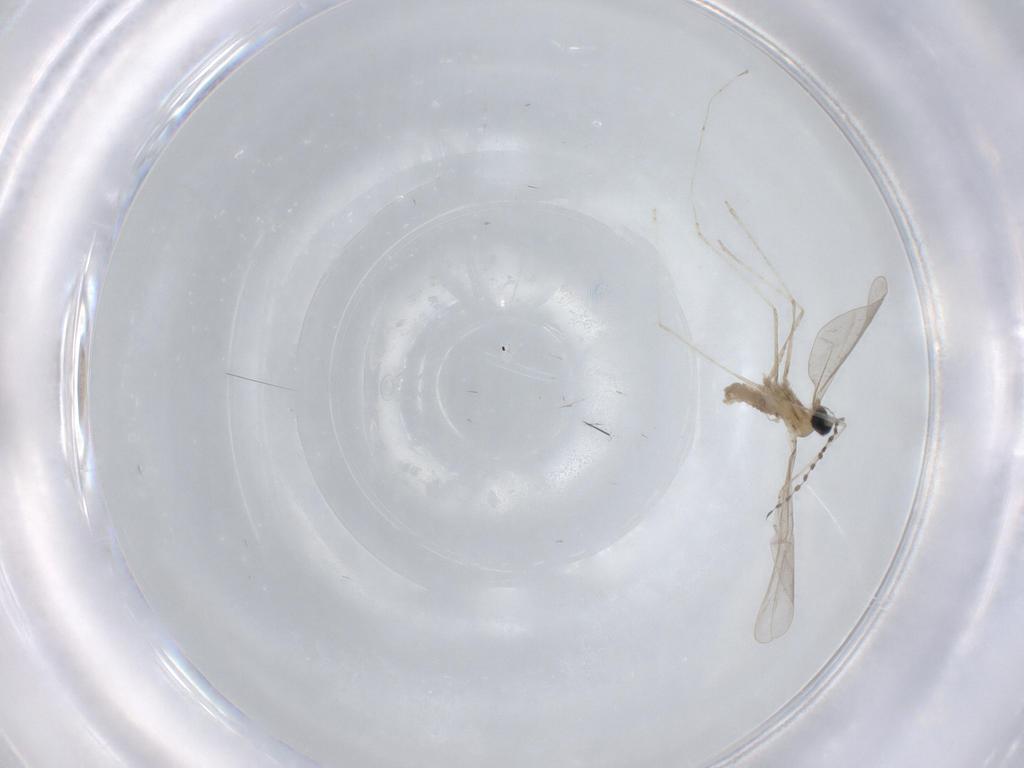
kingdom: Animalia
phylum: Arthropoda
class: Insecta
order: Diptera
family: Cecidomyiidae
